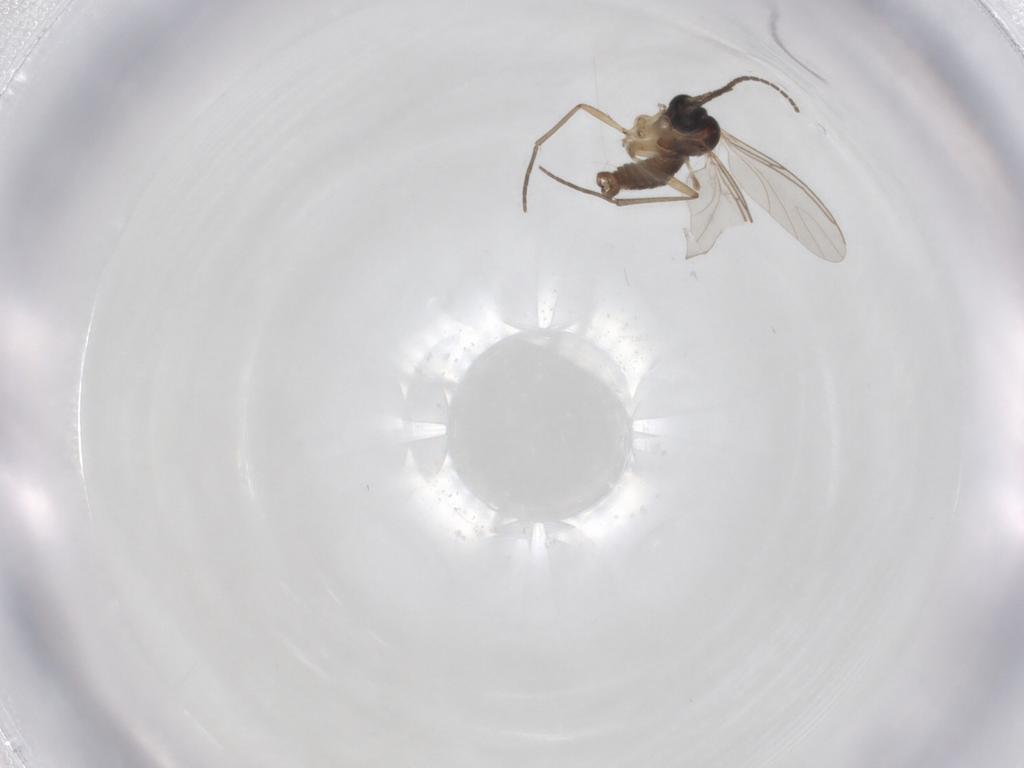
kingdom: Animalia
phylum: Arthropoda
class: Insecta
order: Diptera
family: Sciaridae
